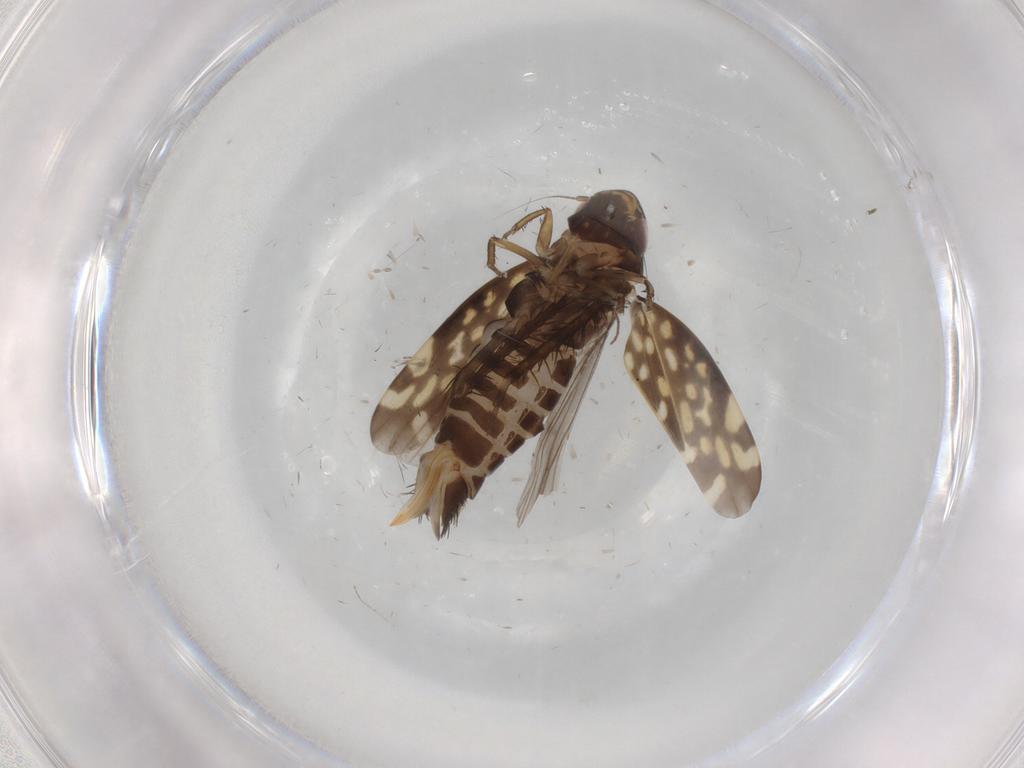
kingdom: Animalia
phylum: Arthropoda
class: Insecta
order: Hemiptera
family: Cicadellidae
